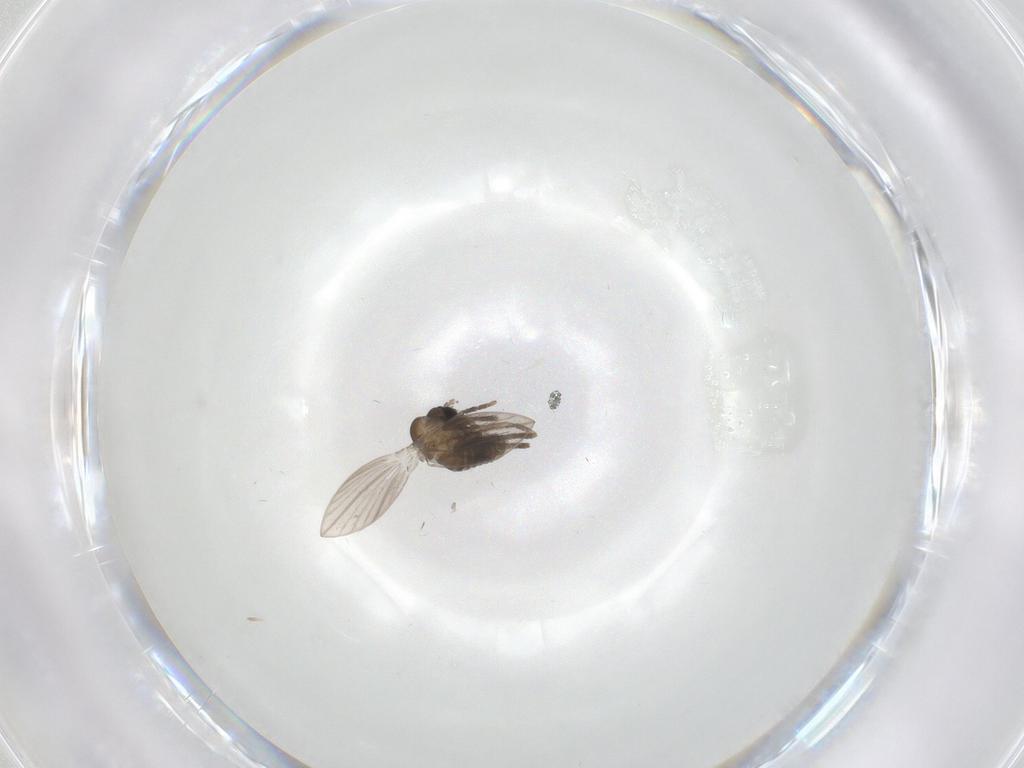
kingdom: Animalia
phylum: Arthropoda
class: Insecta
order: Diptera
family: Psychodidae
